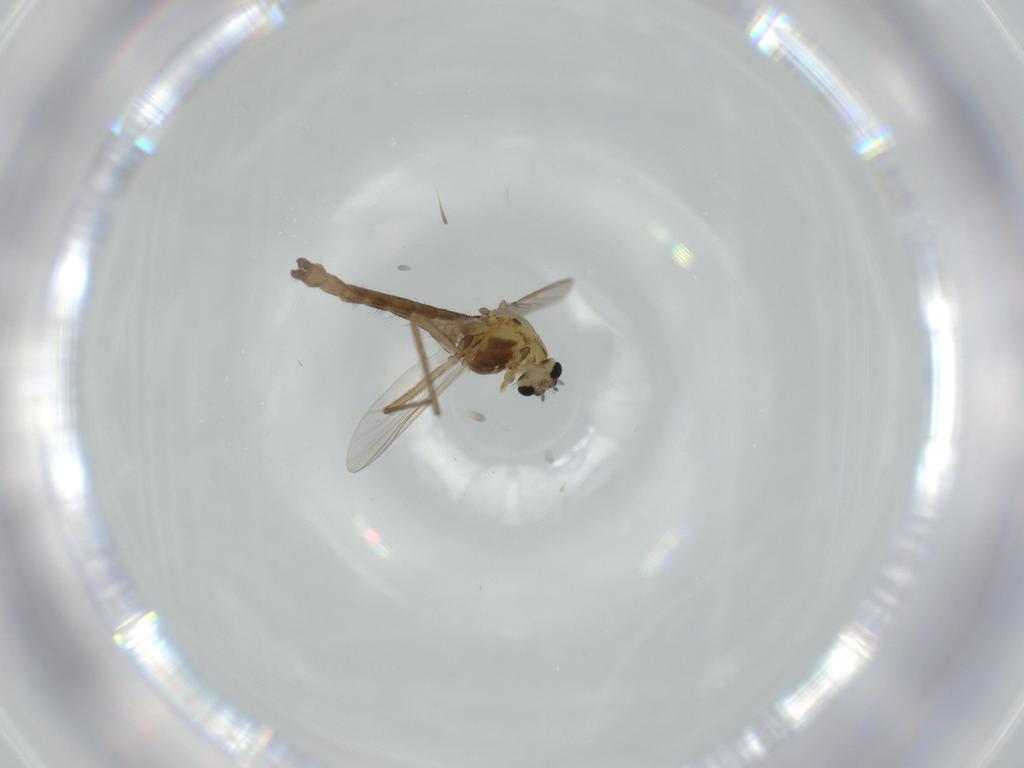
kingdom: Animalia
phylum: Arthropoda
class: Insecta
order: Diptera
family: Chironomidae
